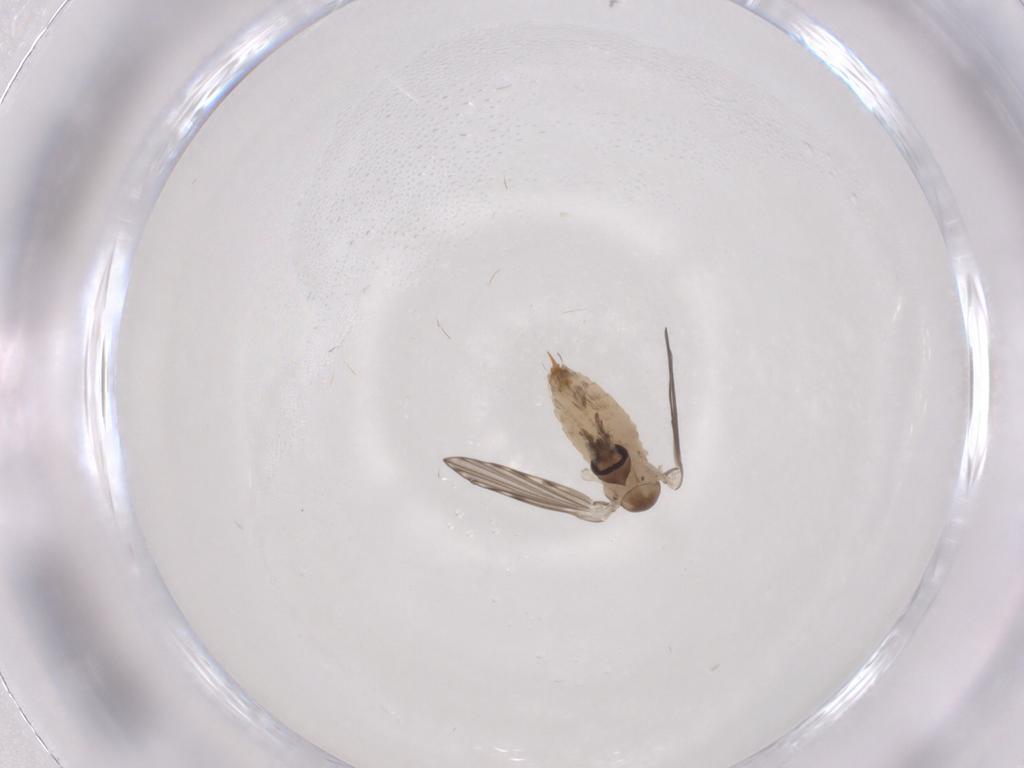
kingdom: Animalia
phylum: Arthropoda
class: Insecta
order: Diptera
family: Psychodidae
